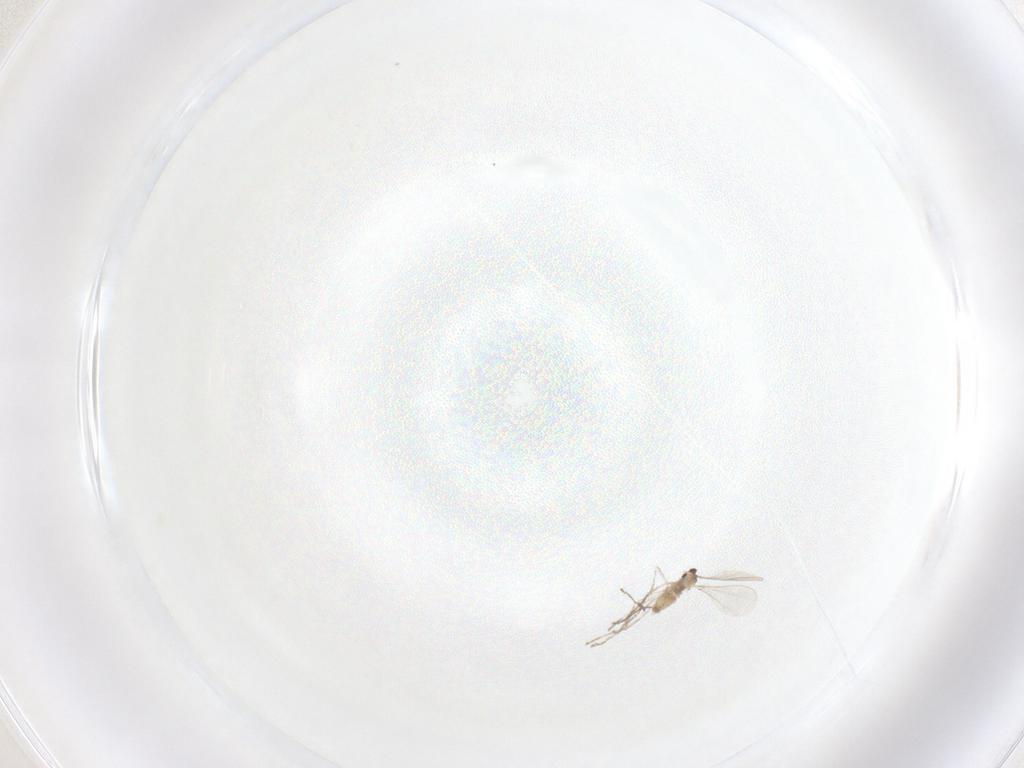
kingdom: Animalia
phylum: Arthropoda
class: Insecta
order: Diptera
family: Cecidomyiidae
